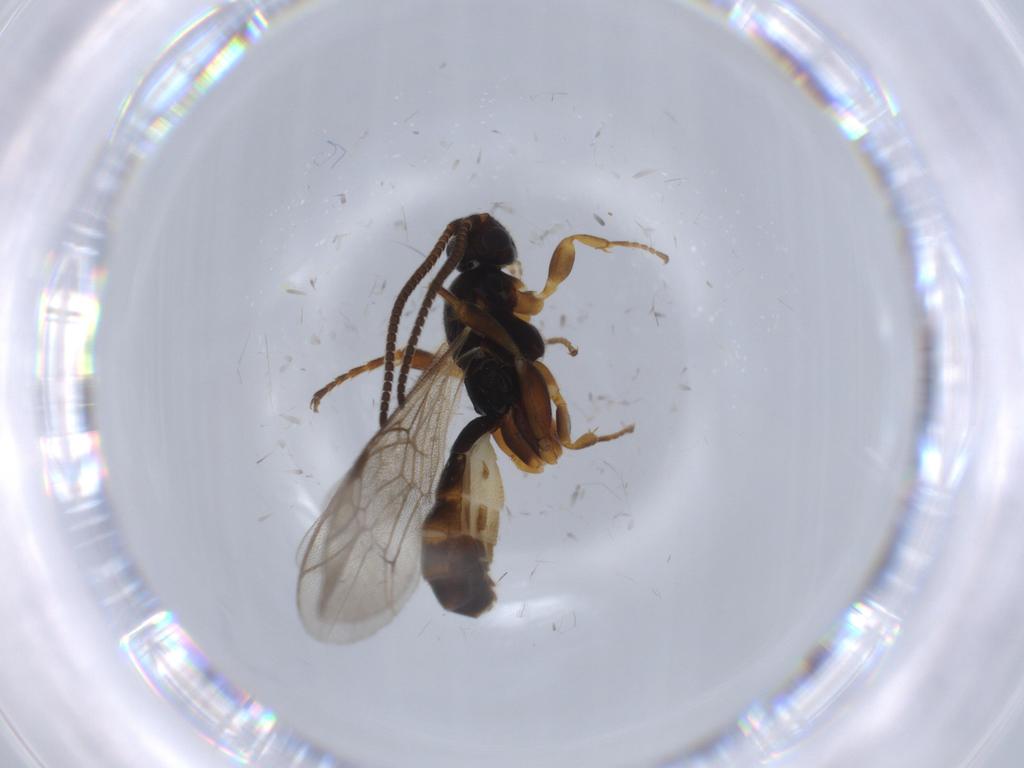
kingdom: Animalia
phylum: Arthropoda
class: Insecta
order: Hymenoptera
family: Ichneumonidae
